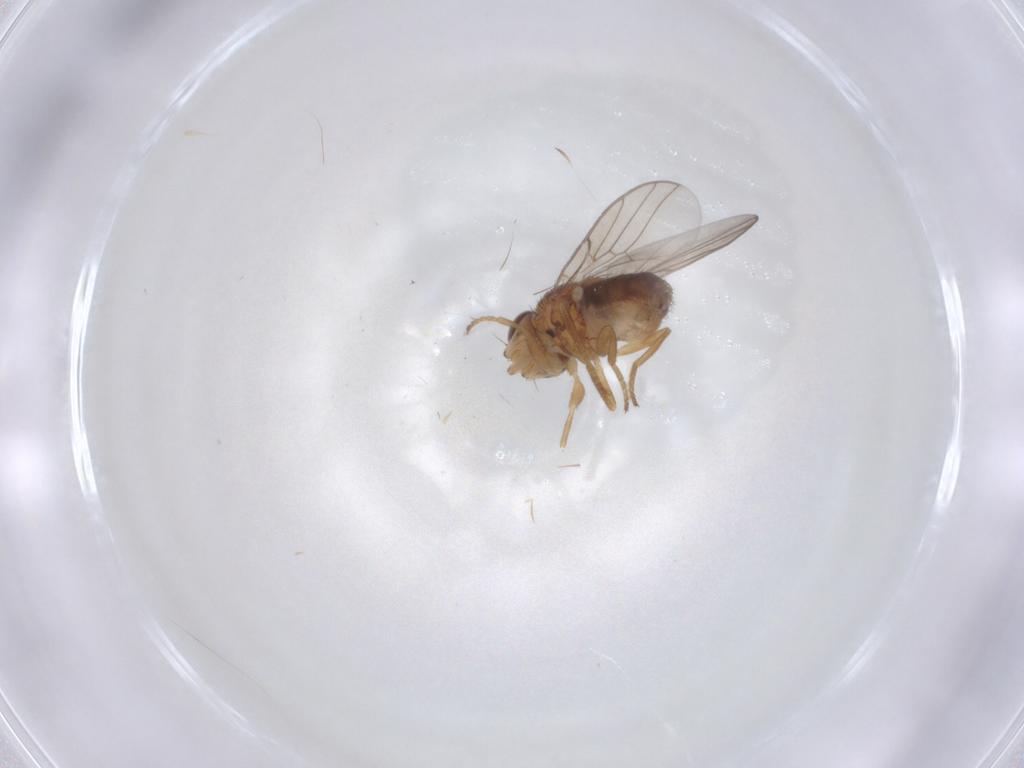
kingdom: Animalia
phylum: Arthropoda
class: Insecta
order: Diptera
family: Chloropidae
